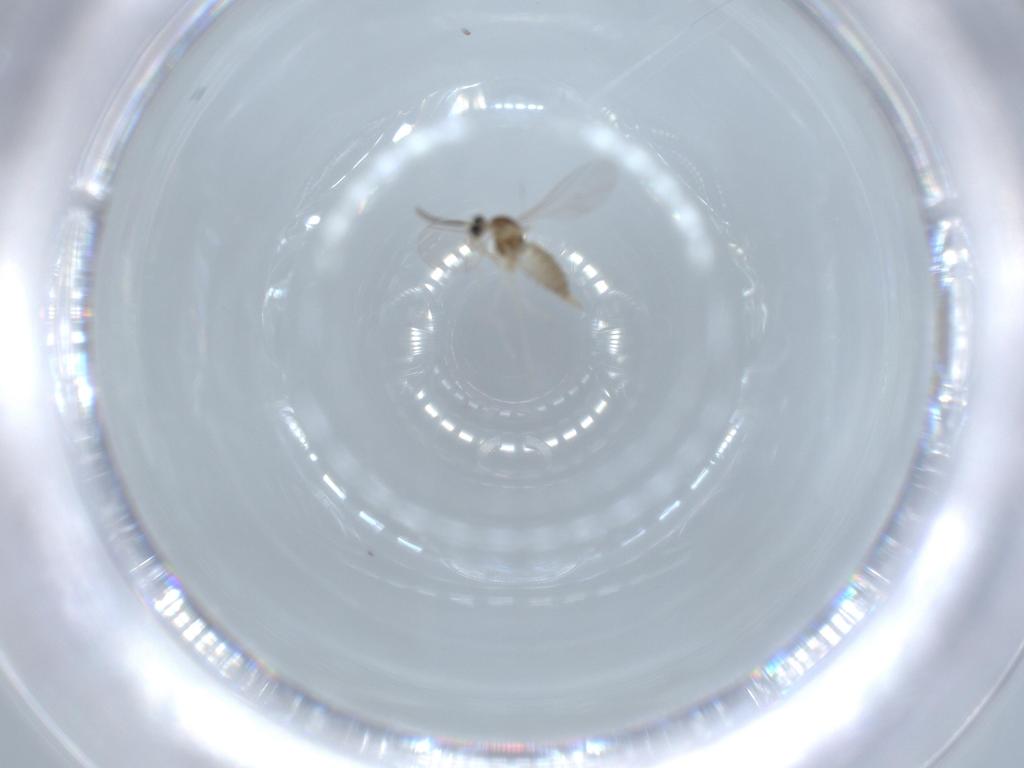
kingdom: Animalia
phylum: Arthropoda
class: Insecta
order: Diptera
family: Cecidomyiidae
